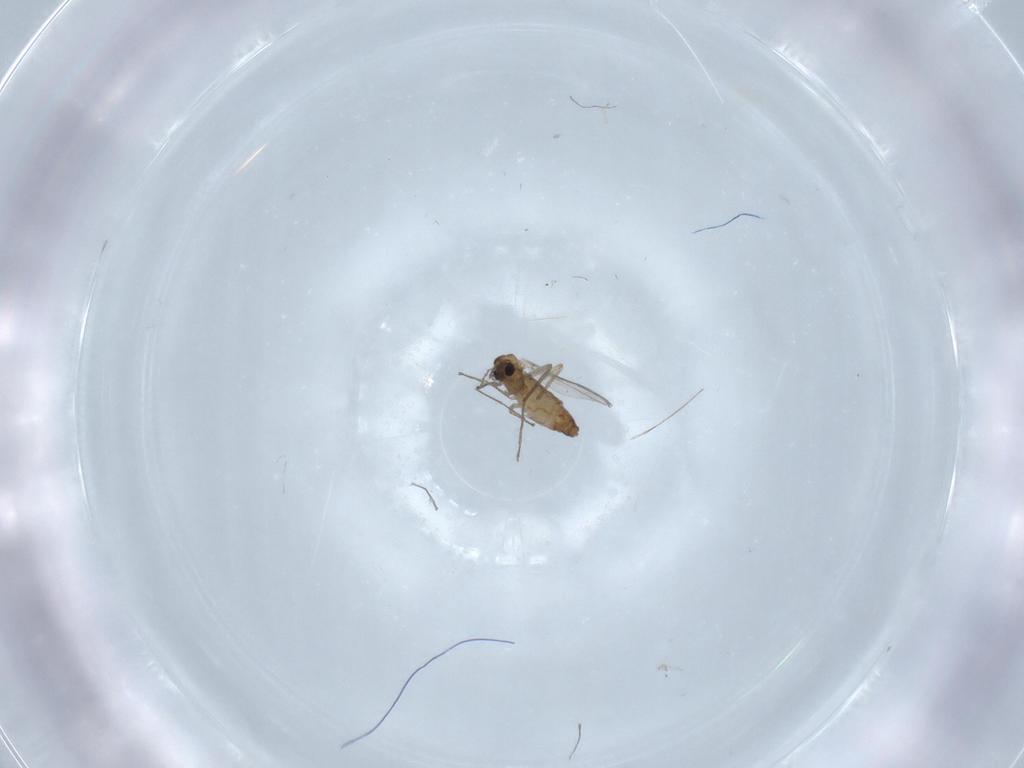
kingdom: Animalia
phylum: Arthropoda
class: Insecta
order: Diptera
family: Chironomidae
